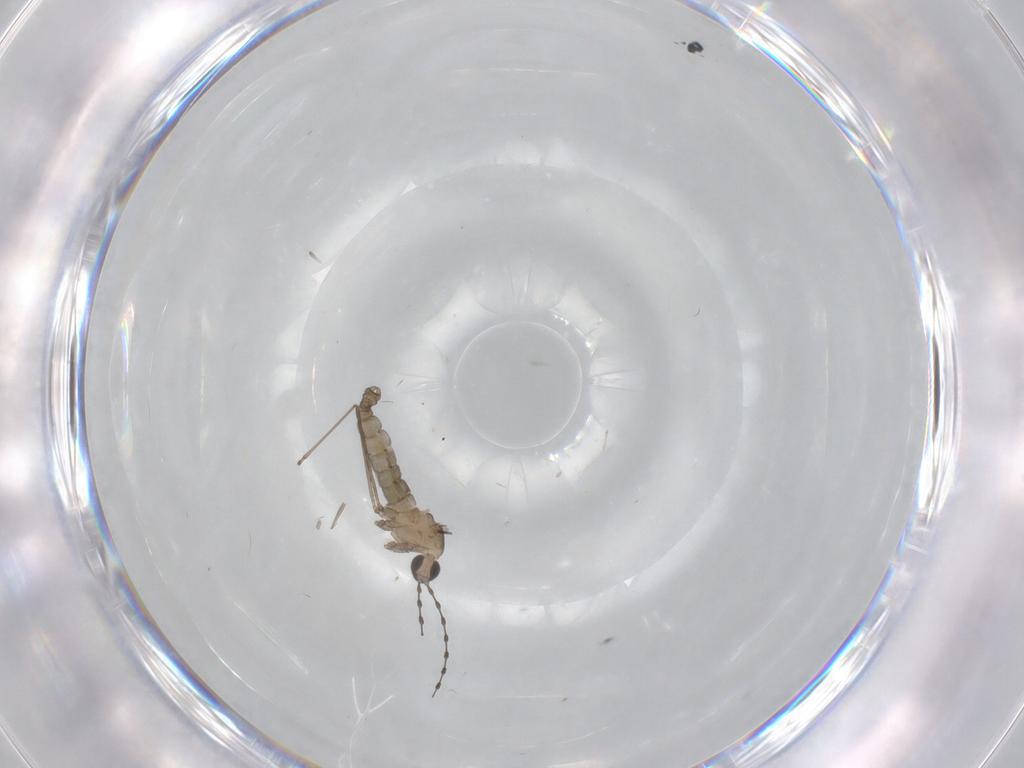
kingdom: Animalia
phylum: Arthropoda
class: Insecta
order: Diptera
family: Cecidomyiidae
